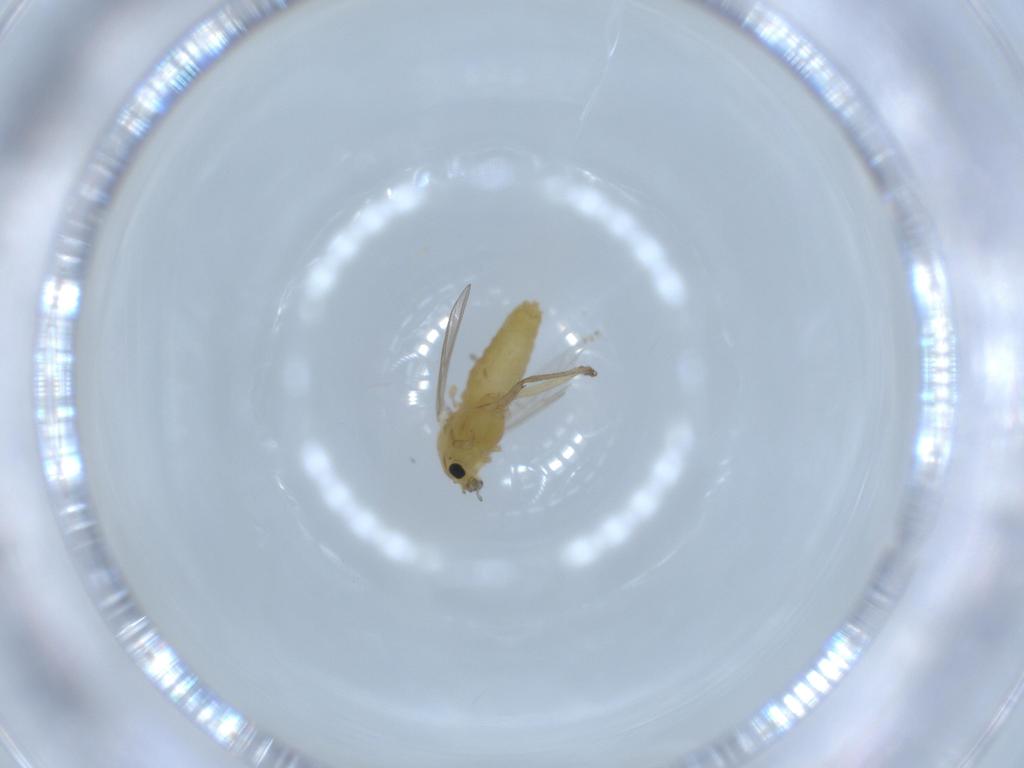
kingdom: Animalia
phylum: Arthropoda
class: Insecta
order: Diptera
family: Chironomidae
